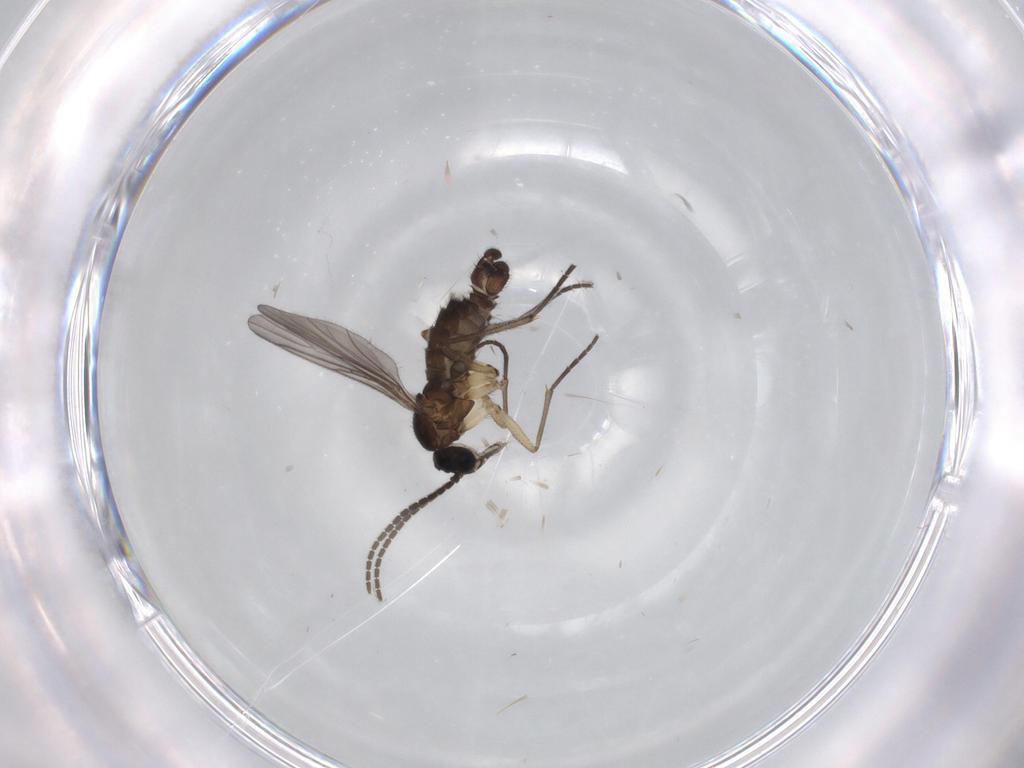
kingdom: Animalia
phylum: Arthropoda
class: Insecta
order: Diptera
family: Sciaridae
